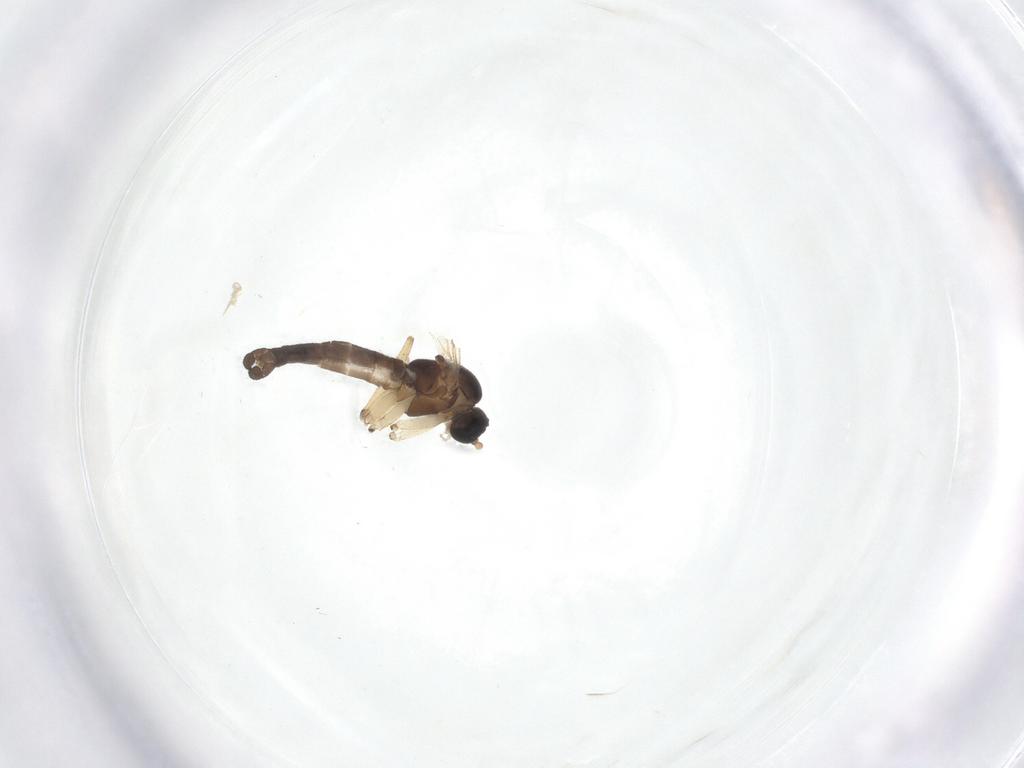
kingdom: Animalia
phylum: Arthropoda
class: Insecta
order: Diptera
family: Sciaridae
